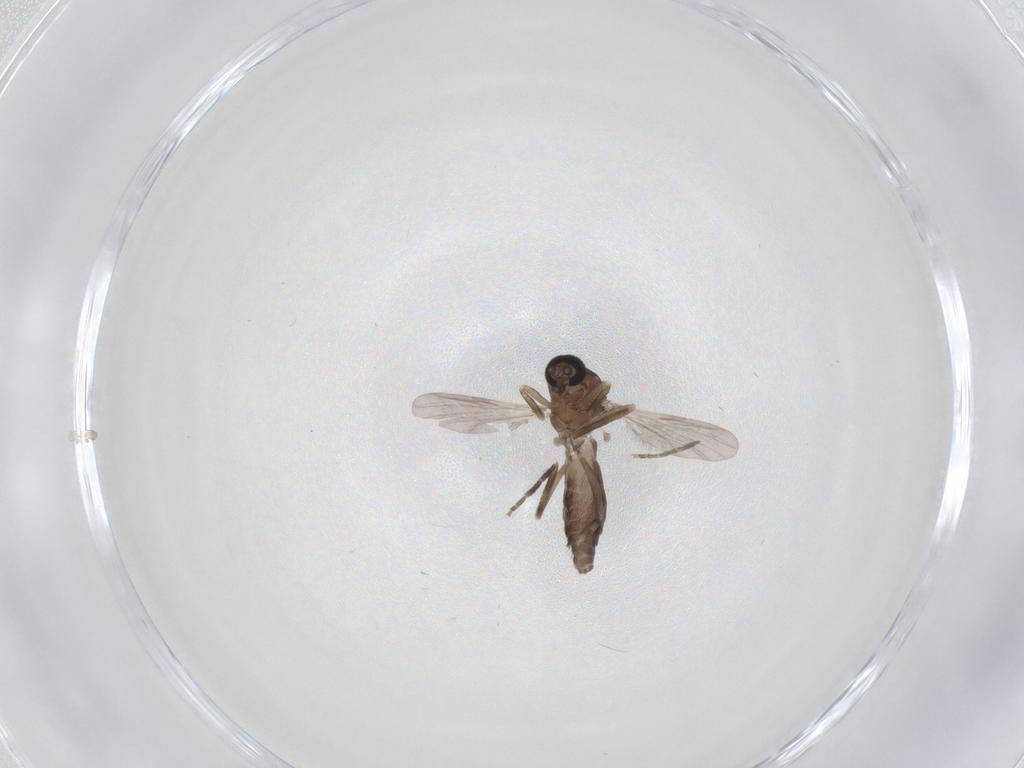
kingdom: Animalia
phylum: Arthropoda
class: Insecta
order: Diptera
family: Ceratopogonidae
